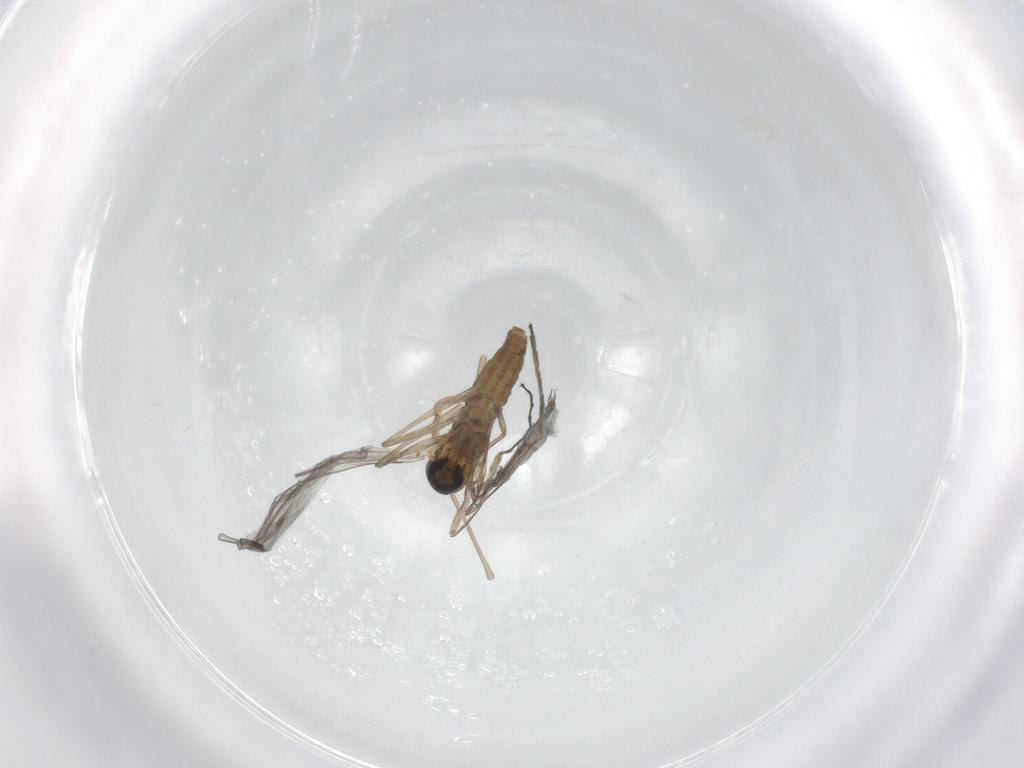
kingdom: Animalia
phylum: Arthropoda
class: Insecta
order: Diptera
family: Cecidomyiidae
